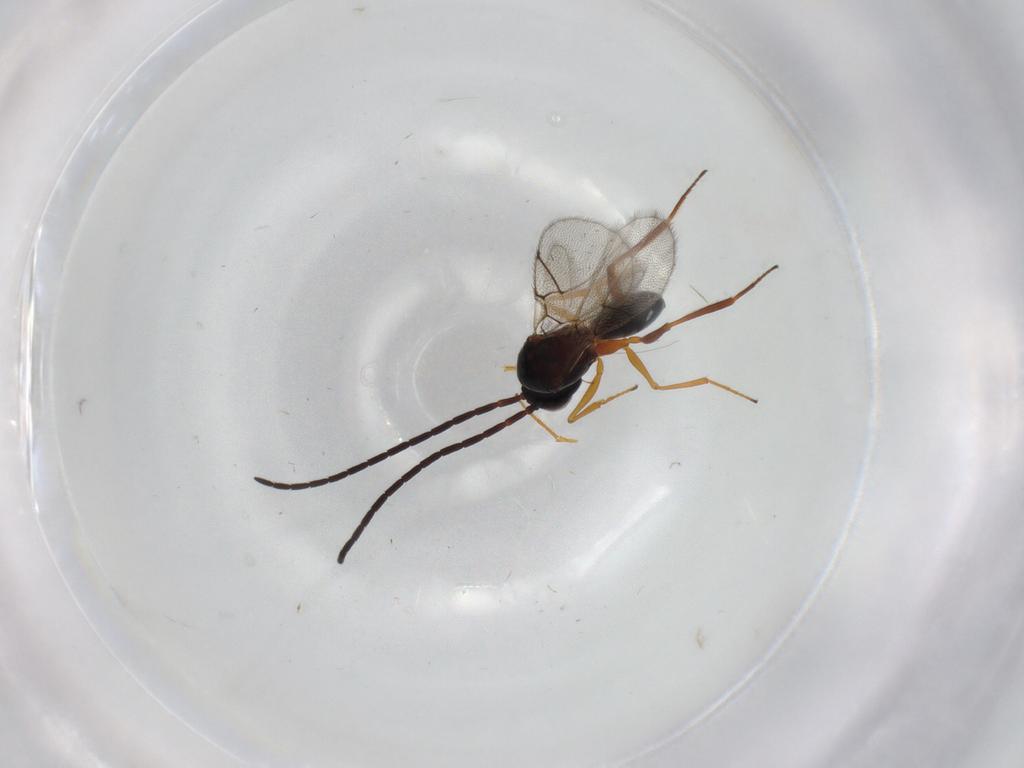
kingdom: Animalia
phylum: Arthropoda
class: Insecta
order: Hymenoptera
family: Figitidae
